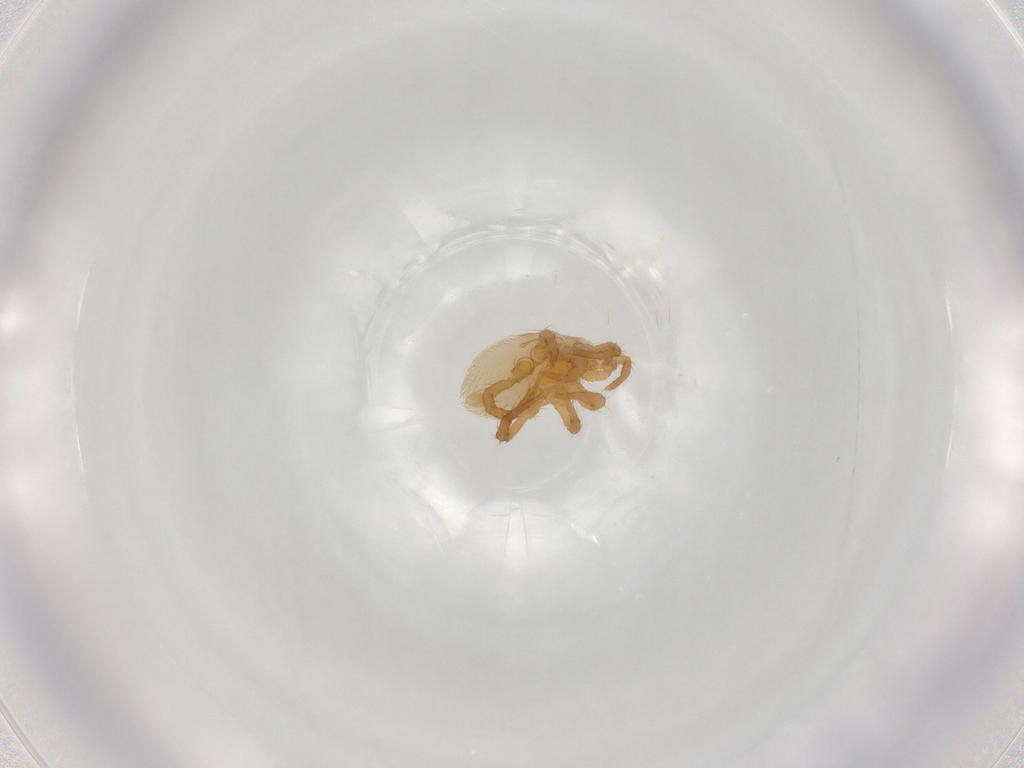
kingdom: Animalia
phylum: Arthropoda
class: Arachnida
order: Mesostigmata
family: Parasitidae
